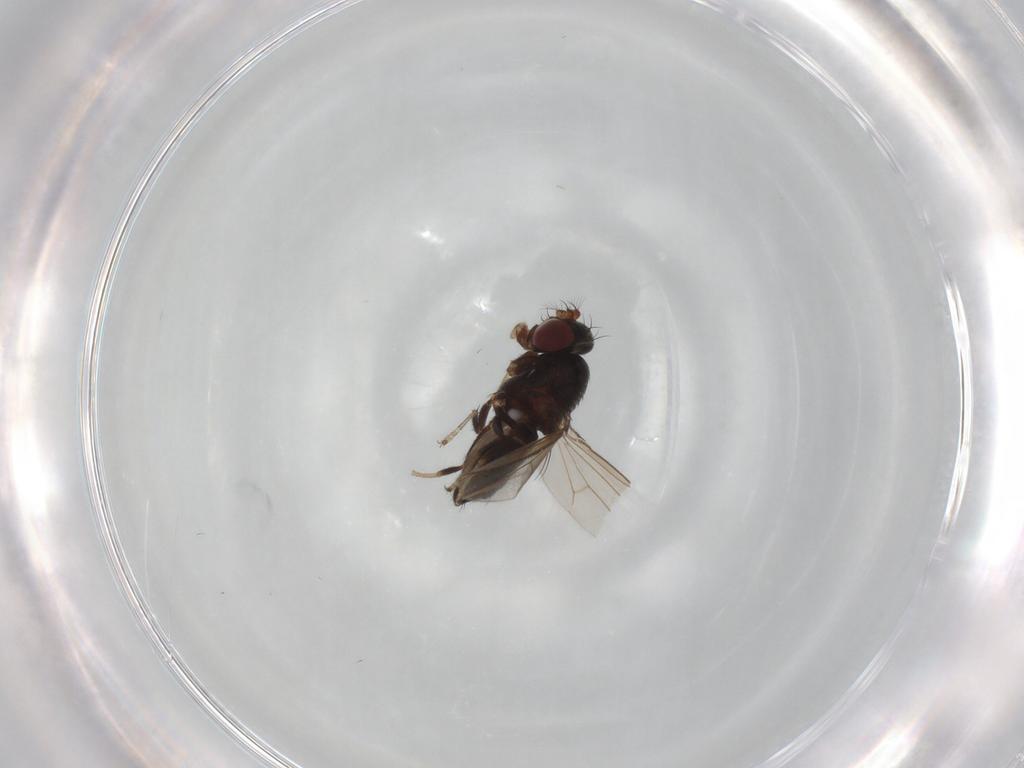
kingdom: Animalia
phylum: Arthropoda
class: Insecta
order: Diptera
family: Ephydridae
